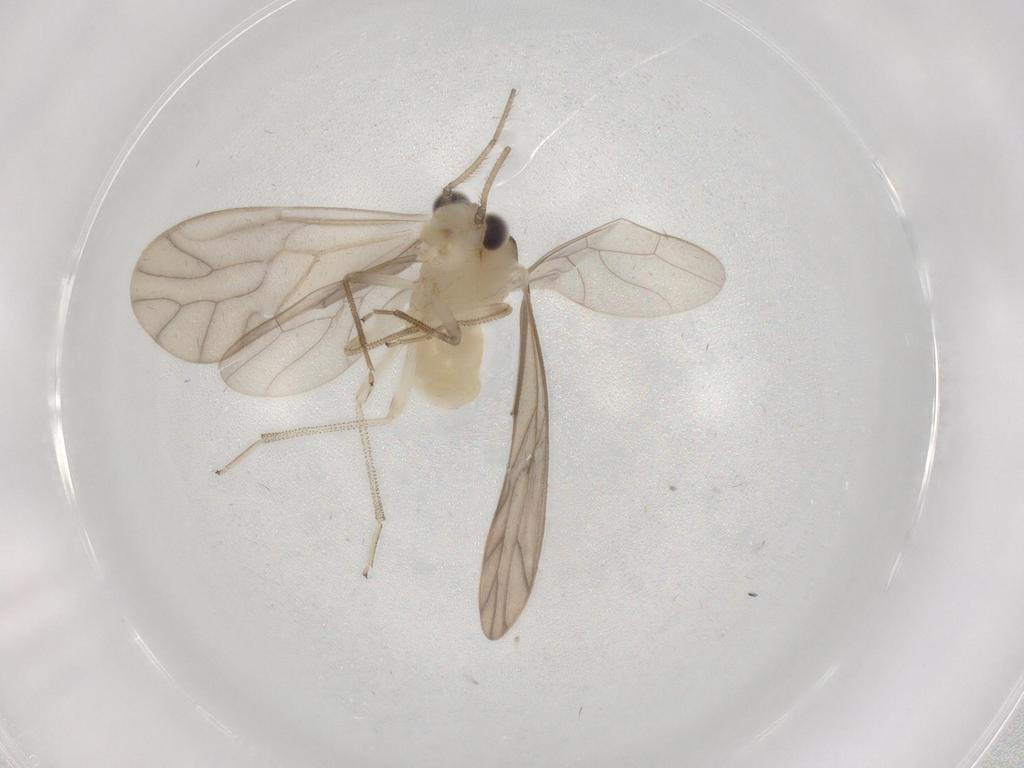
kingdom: Animalia
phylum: Arthropoda
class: Insecta
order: Psocodea
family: Caeciliusidae
